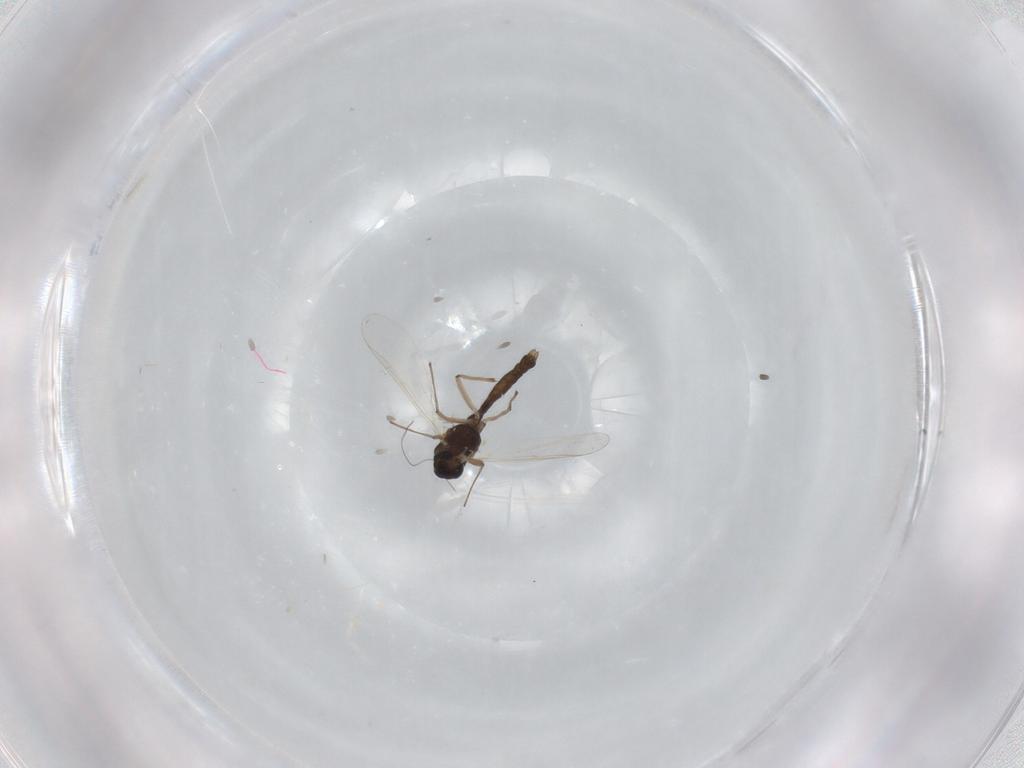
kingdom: Animalia
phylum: Arthropoda
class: Insecta
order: Diptera
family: Chironomidae
